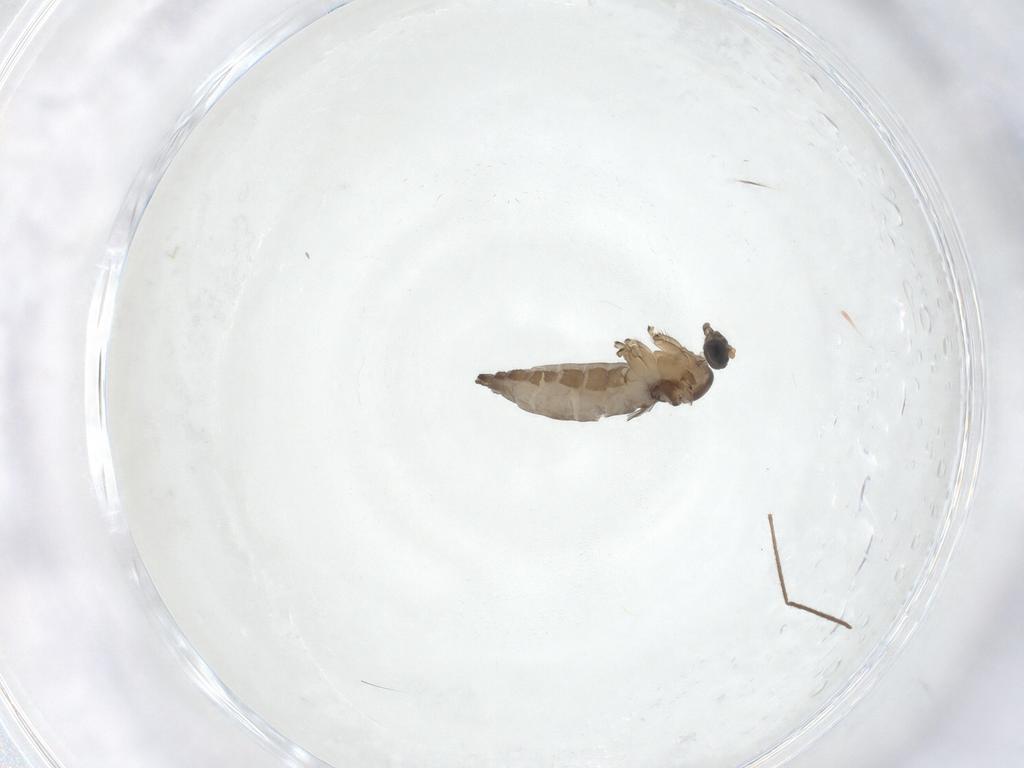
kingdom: Animalia
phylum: Arthropoda
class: Insecta
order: Diptera
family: Sciaridae
